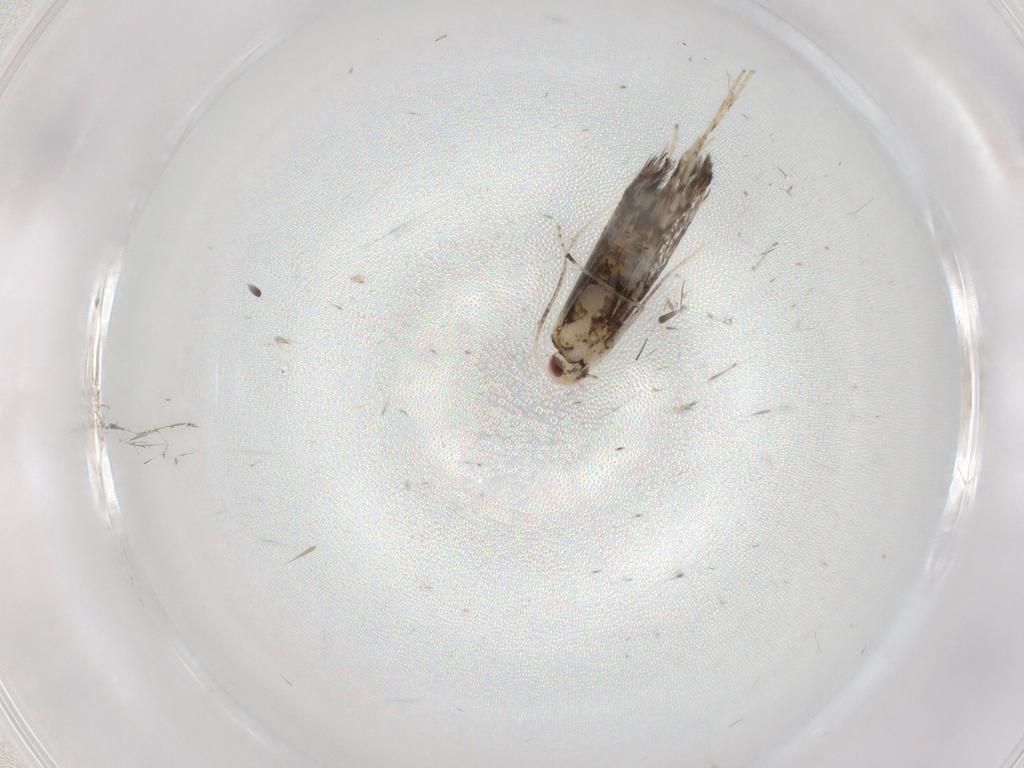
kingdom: Animalia
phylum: Arthropoda
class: Insecta
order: Lepidoptera
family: Gracillariidae
